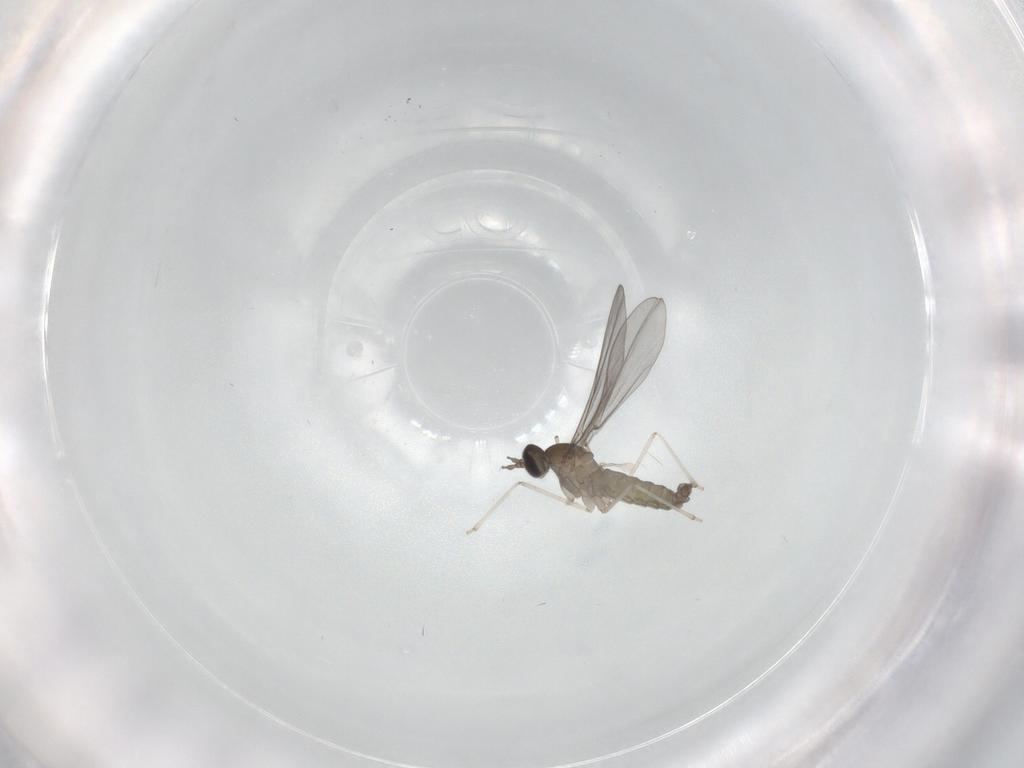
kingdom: Animalia
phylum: Arthropoda
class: Insecta
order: Diptera
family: Ceratopogonidae
